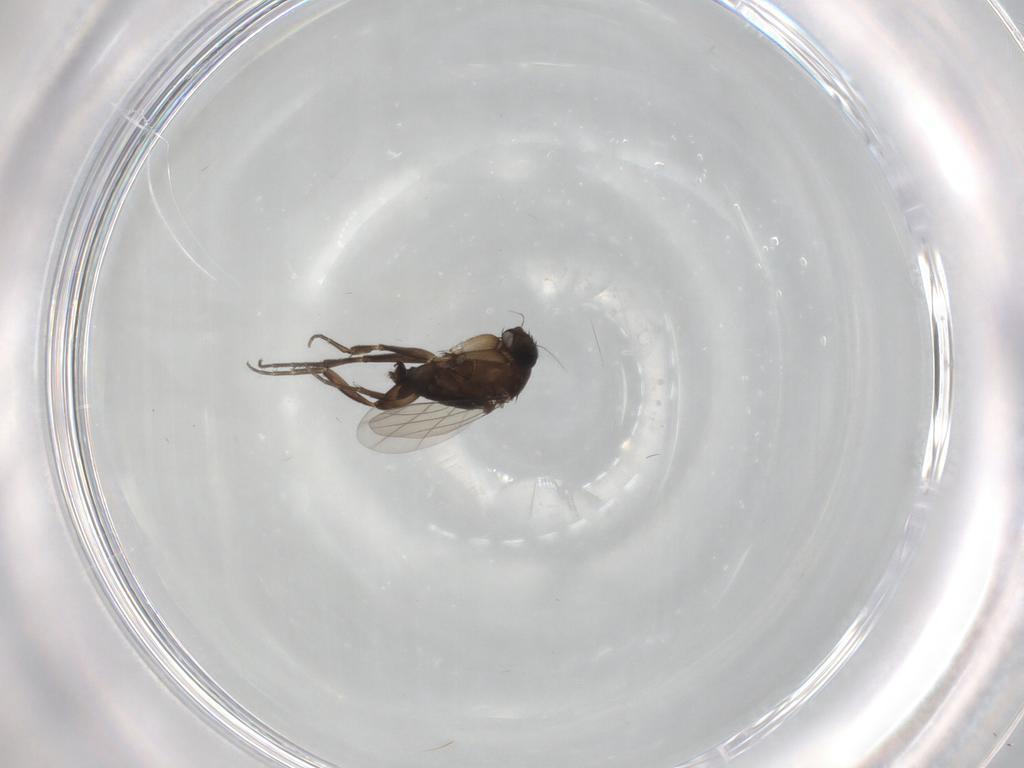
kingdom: Animalia
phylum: Arthropoda
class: Insecta
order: Diptera
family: Phoridae
